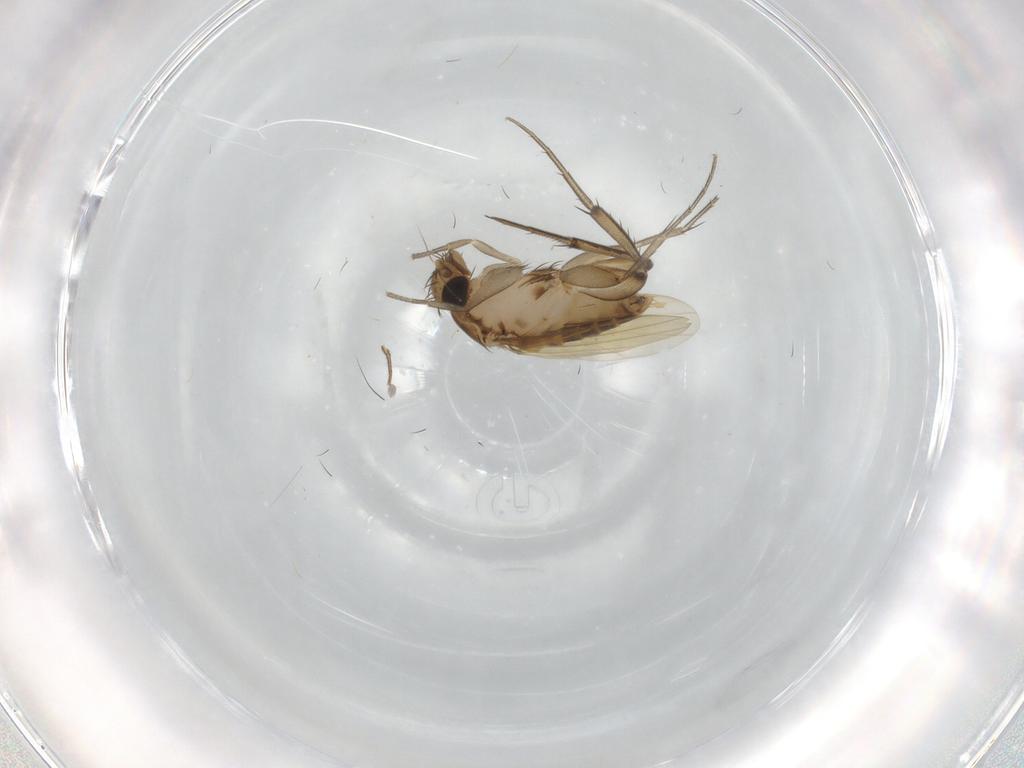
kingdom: Animalia
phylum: Arthropoda
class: Insecta
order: Diptera
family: Phoridae
